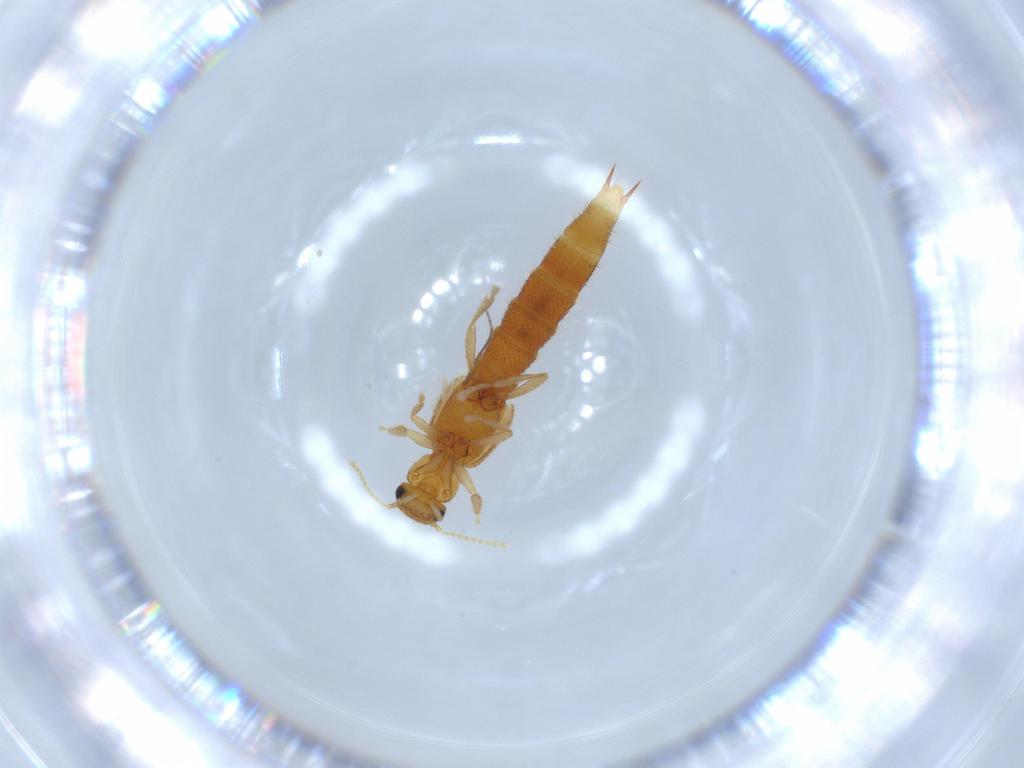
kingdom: Animalia
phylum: Arthropoda
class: Insecta
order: Coleoptera
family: Staphylinidae
